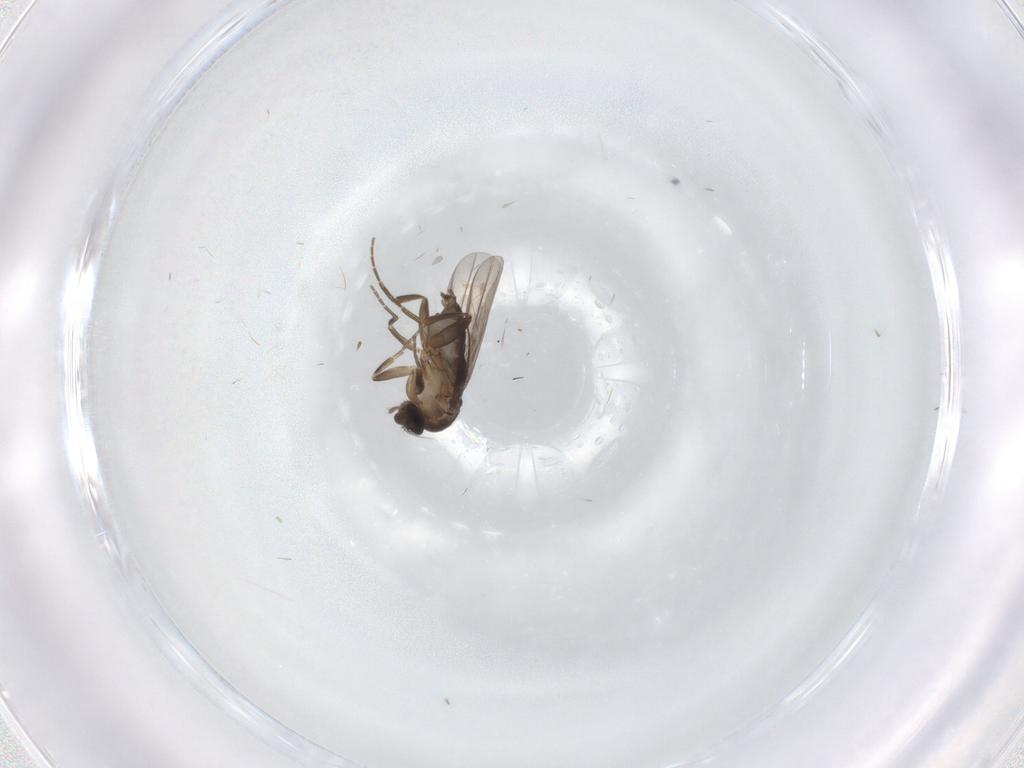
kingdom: Animalia
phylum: Arthropoda
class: Insecta
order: Diptera
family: Phoridae
